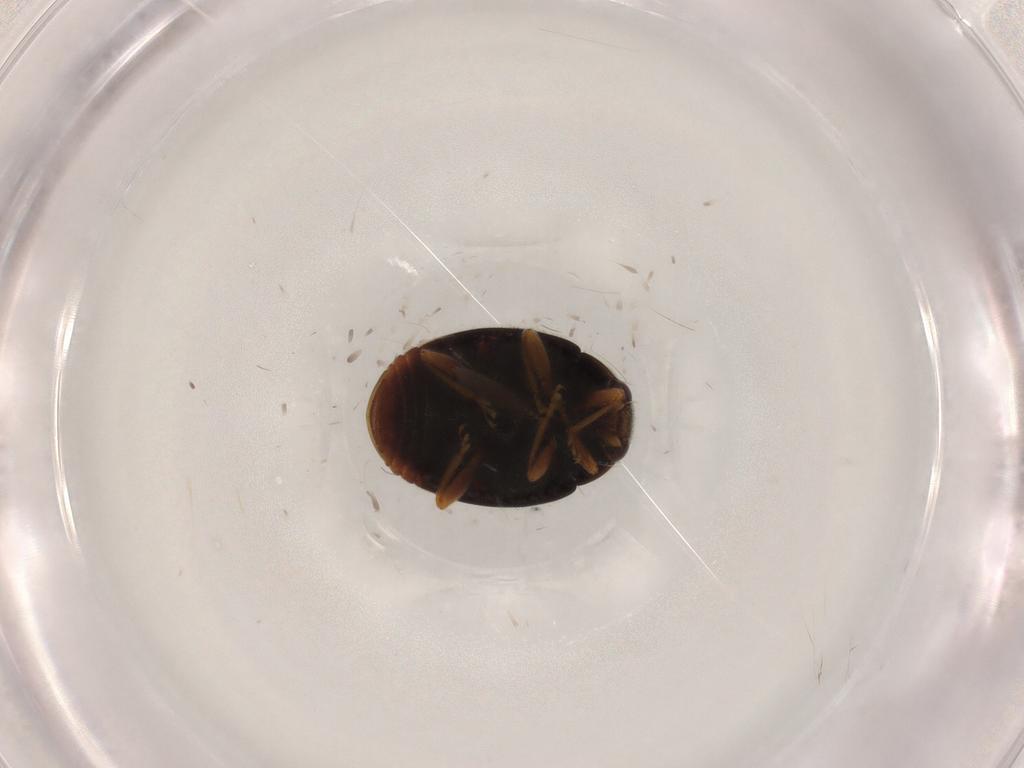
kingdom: Animalia
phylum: Arthropoda
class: Insecta
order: Coleoptera
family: Coccinellidae
